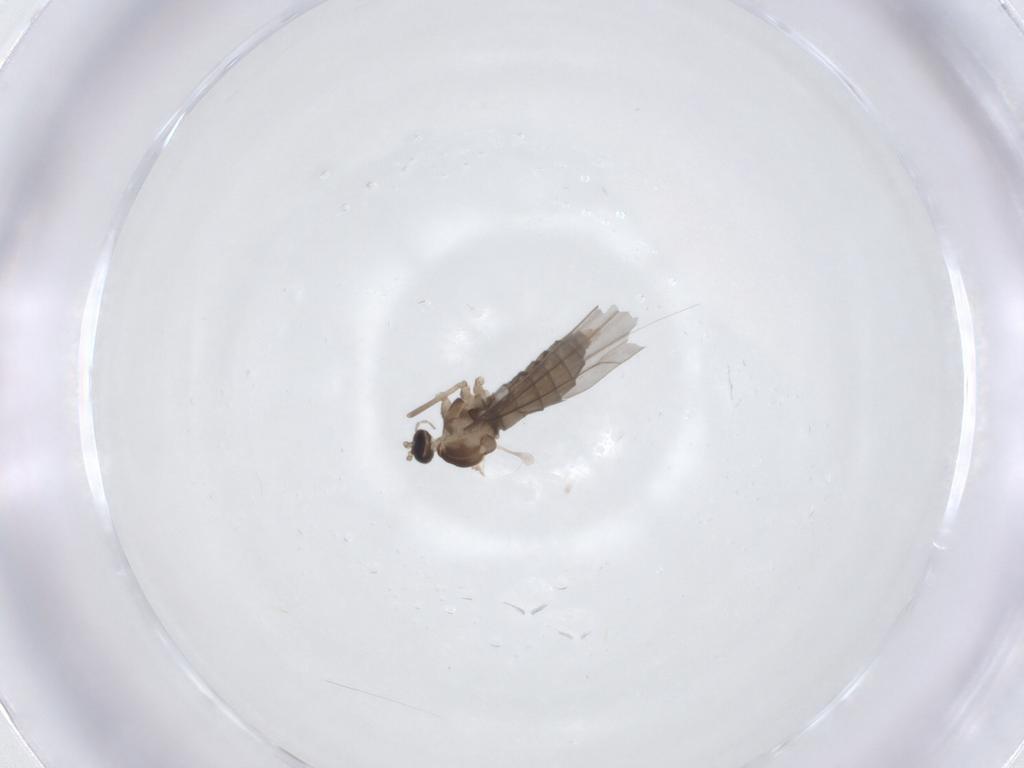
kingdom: Animalia
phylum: Arthropoda
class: Insecta
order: Diptera
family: Cecidomyiidae
